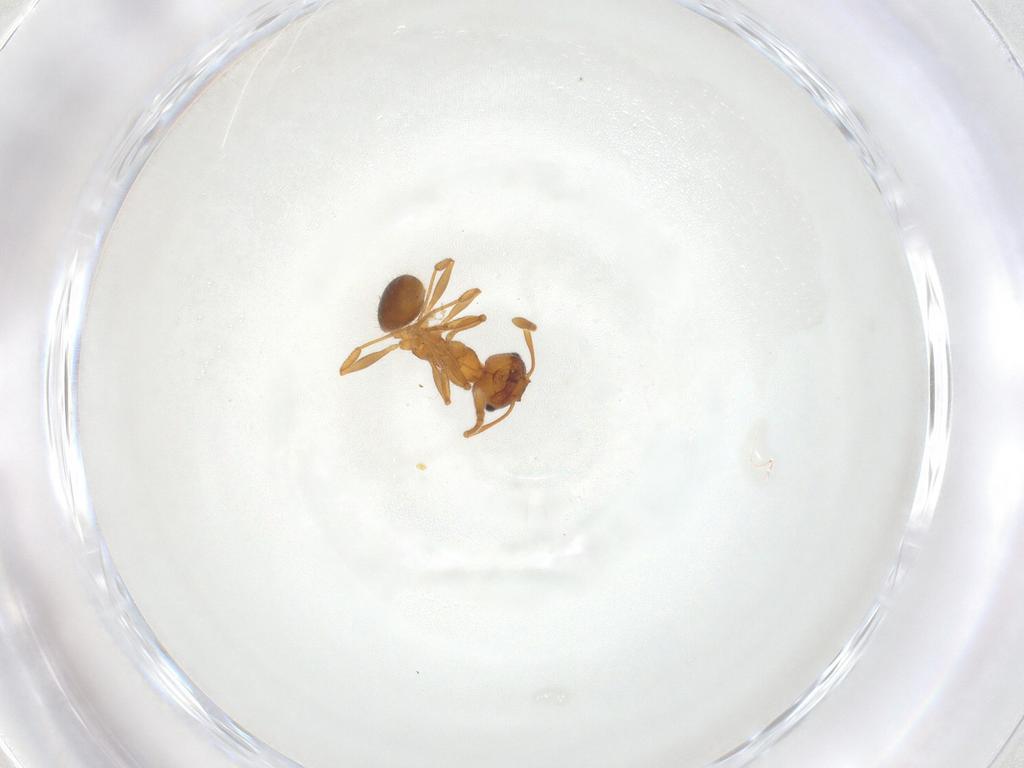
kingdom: Animalia
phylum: Arthropoda
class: Insecta
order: Hymenoptera
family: Formicidae
